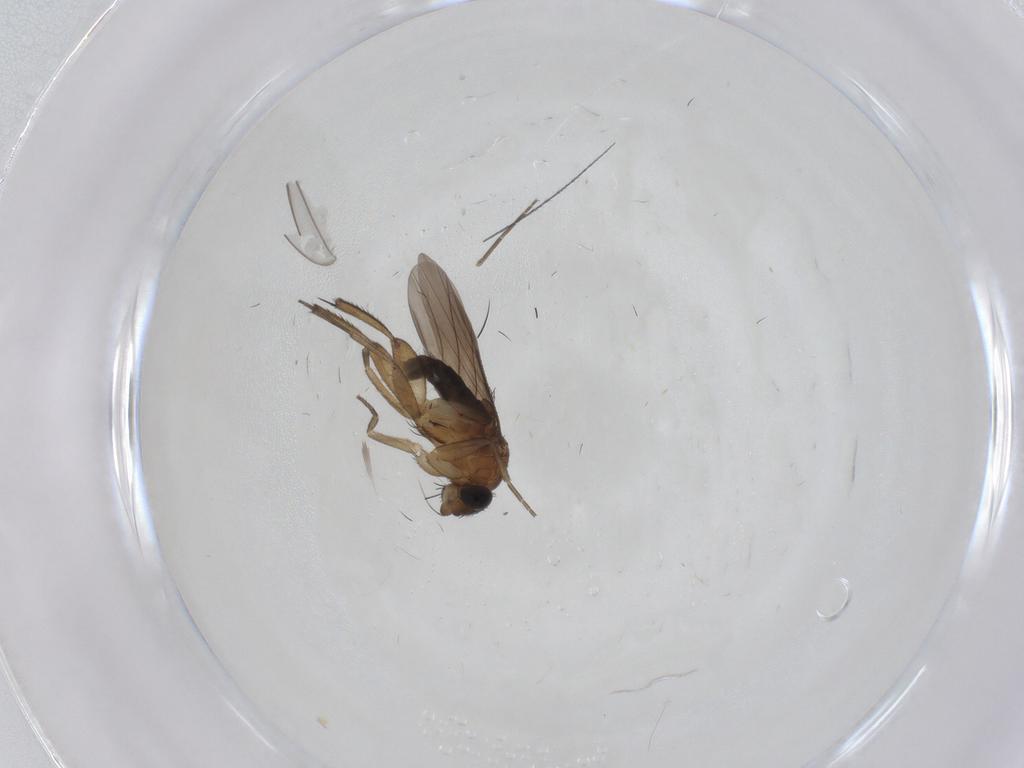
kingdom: Animalia
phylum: Arthropoda
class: Insecta
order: Diptera
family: Phoridae
